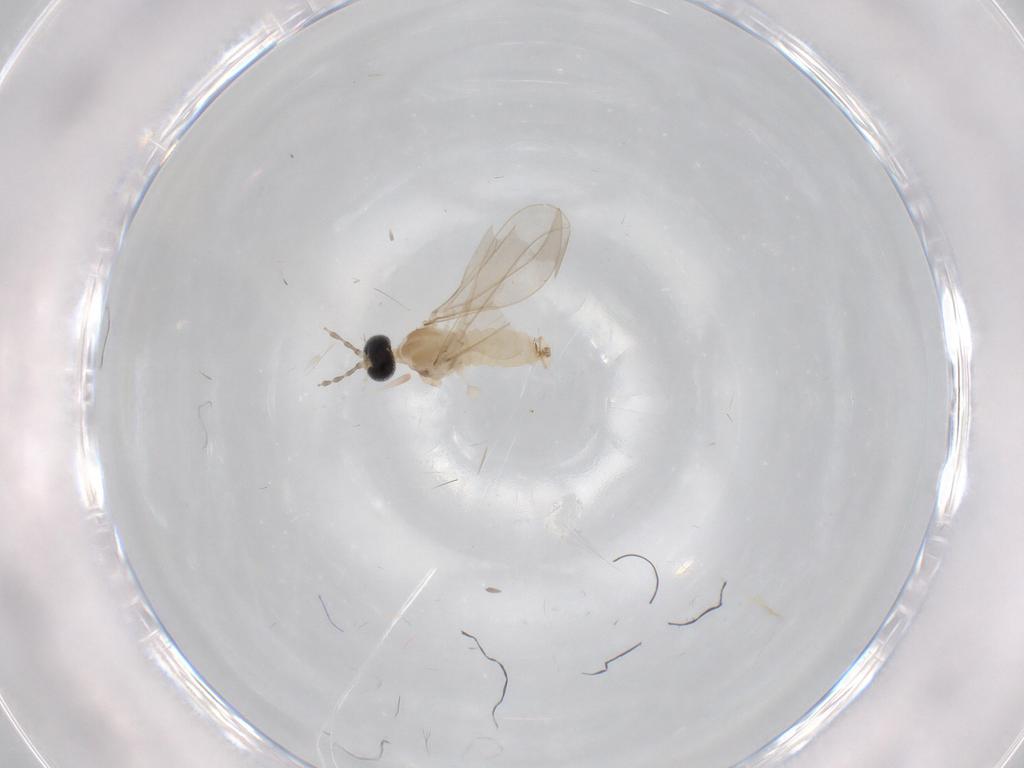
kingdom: Animalia
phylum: Arthropoda
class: Insecta
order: Diptera
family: Cecidomyiidae
